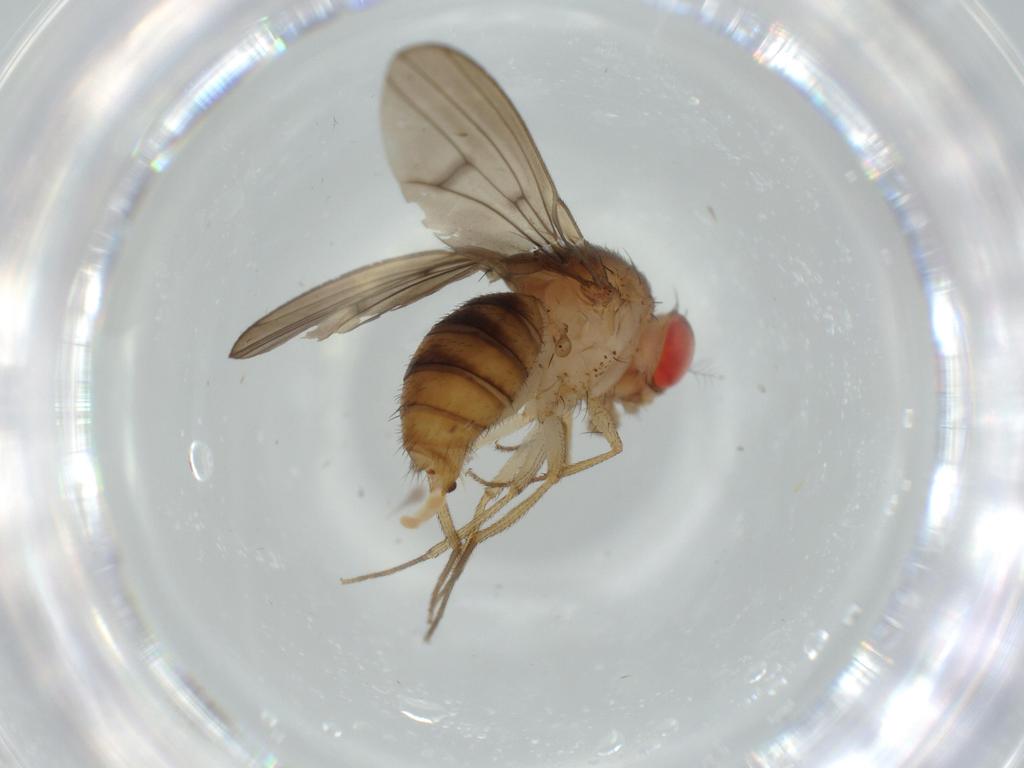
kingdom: Animalia
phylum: Arthropoda
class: Insecta
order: Diptera
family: Drosophilidae
